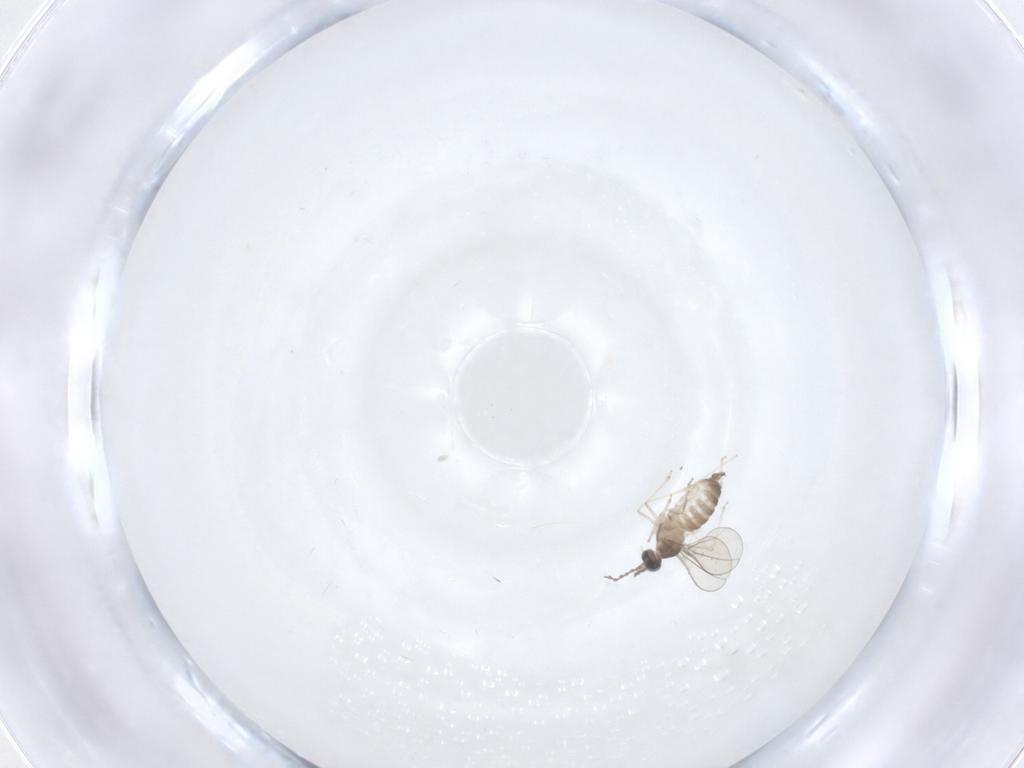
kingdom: Animalia
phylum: Arthropoda
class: Insecta
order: Diptera
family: Cecidomyiidae
